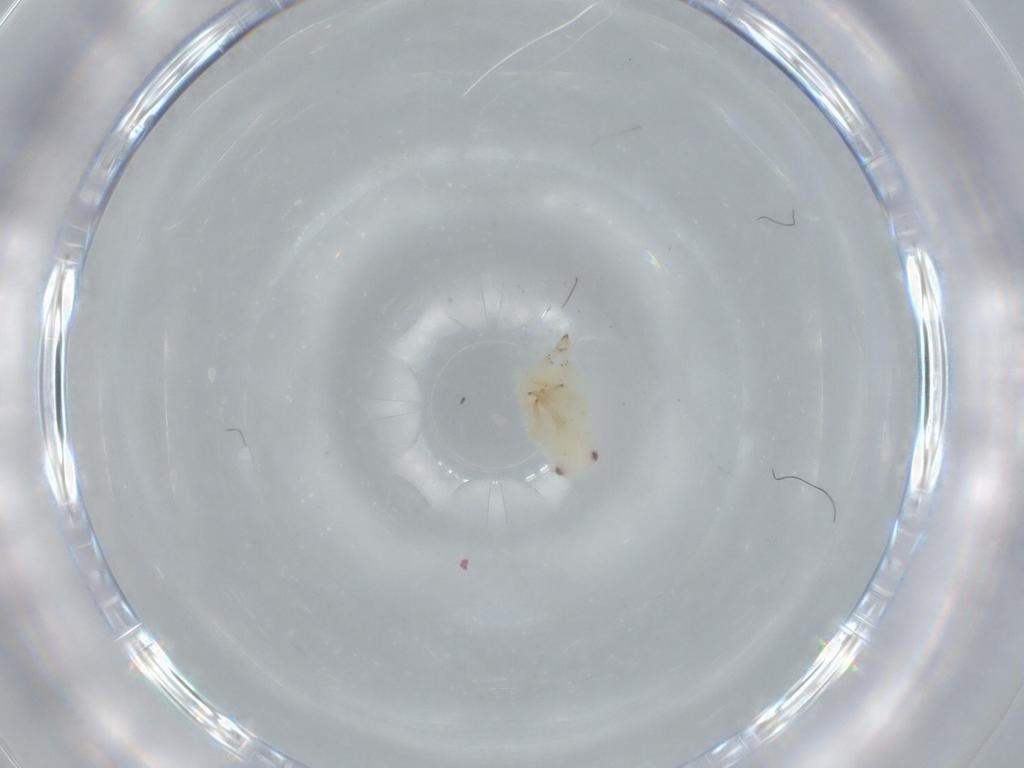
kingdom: Animalia
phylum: Arthropoda
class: Insecta
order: Hemiptera
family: Flatidae
